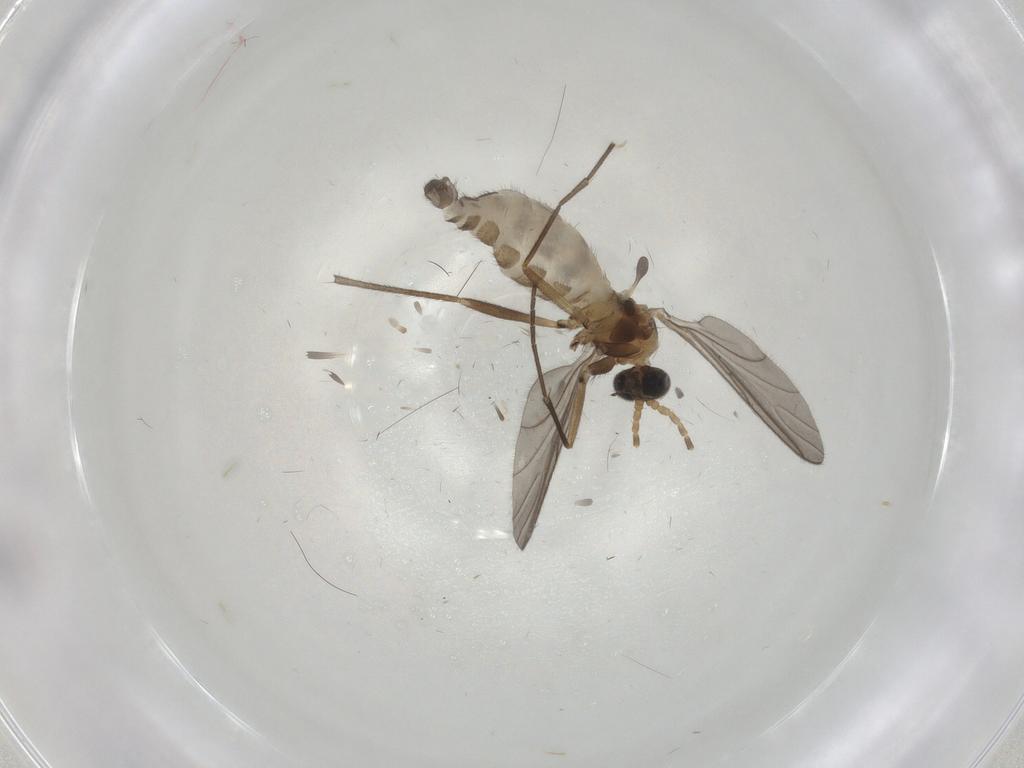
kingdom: Animalia
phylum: Arthropoda
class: Insecta
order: Diptera
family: Sciaridae
